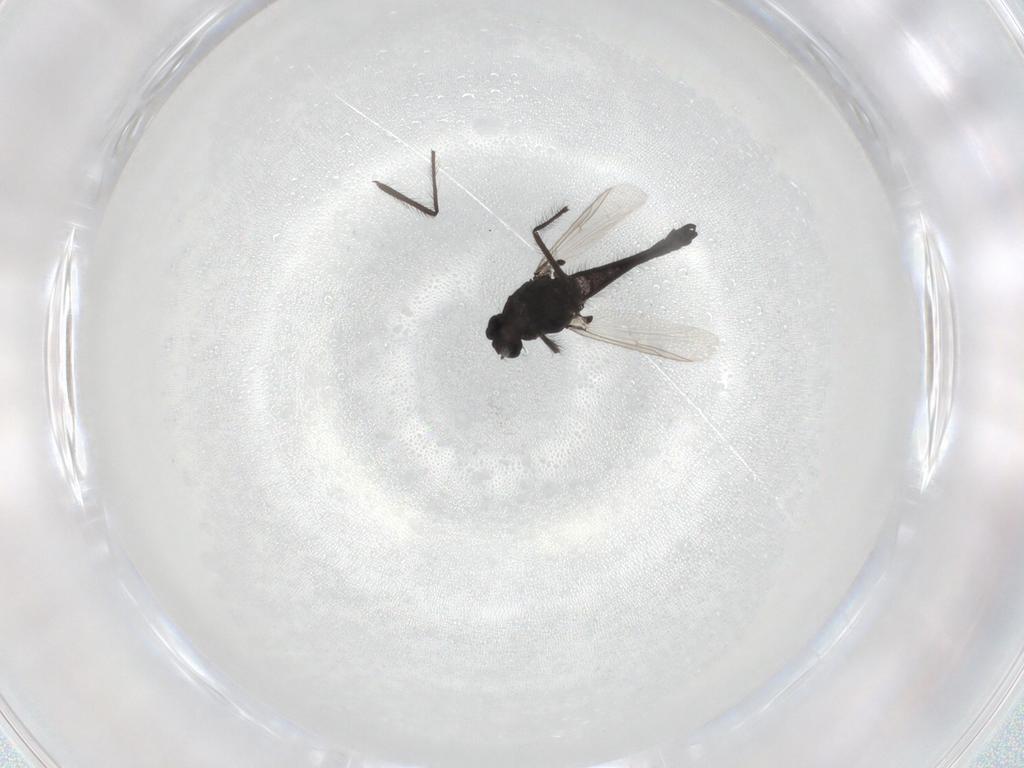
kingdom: Animalia
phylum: Arthropoda
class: Insecta
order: Diptera
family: Chironomidae
